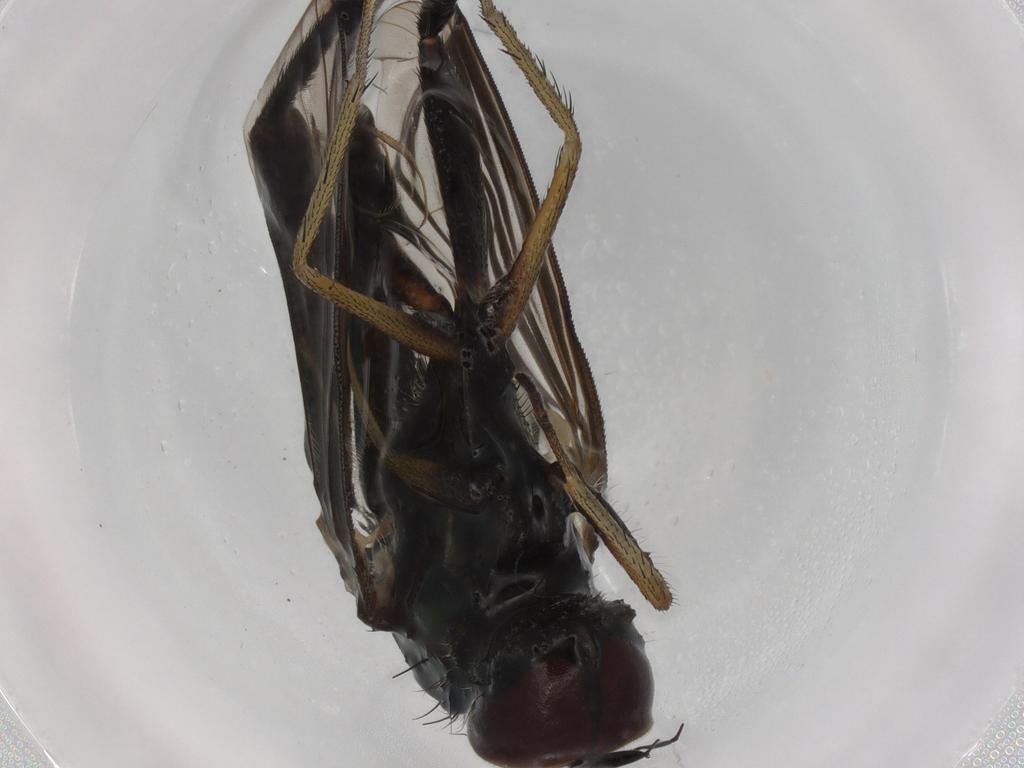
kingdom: Animalia
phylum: Arthropoda
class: Insecta
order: Diptera
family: Dolichopodidae
